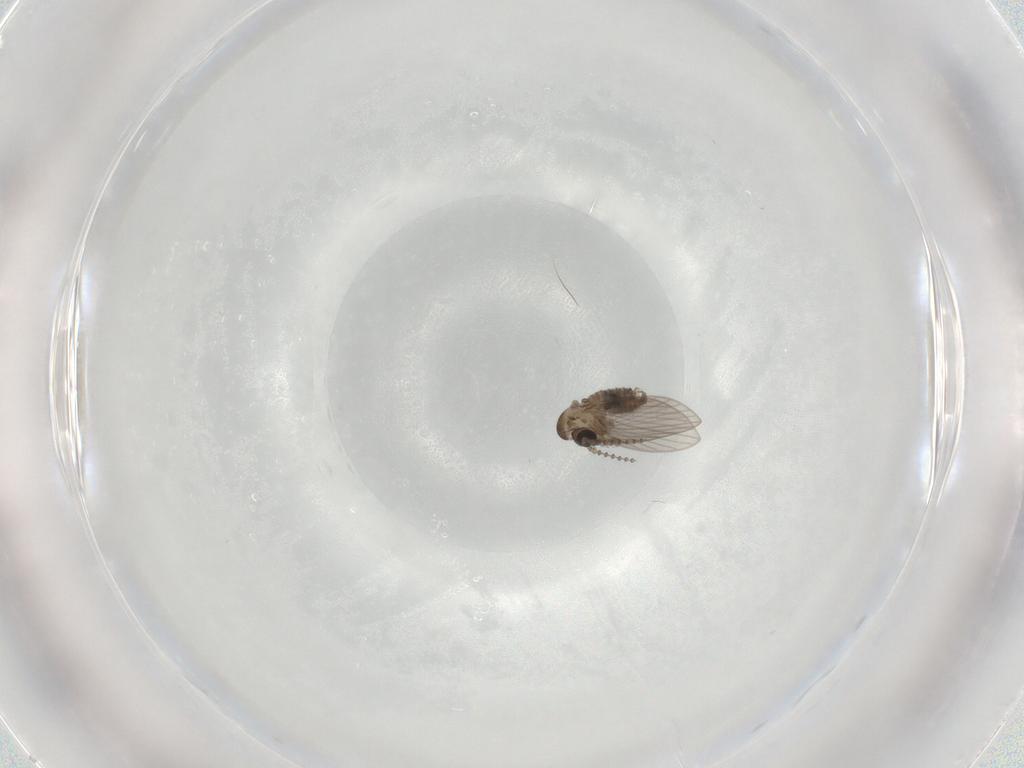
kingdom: Animalia
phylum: Arthropoda
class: Insecta
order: Diptera
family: Psychodidae
